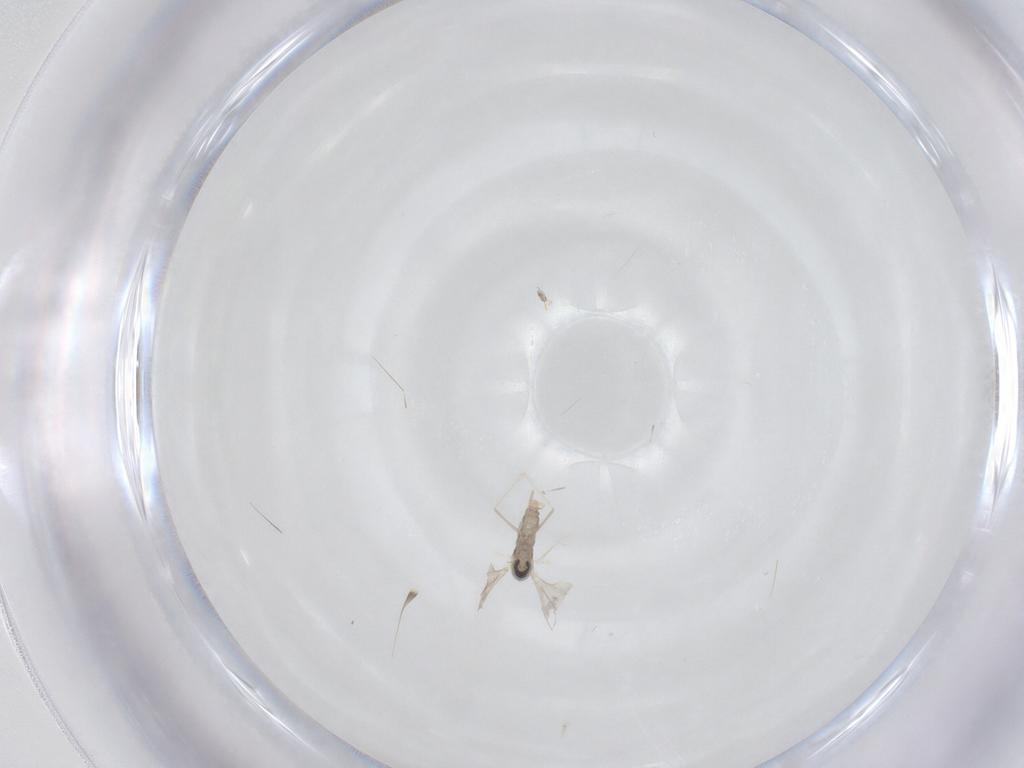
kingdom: Animalia
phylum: Arthropoda
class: Insecta
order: Diptera
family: Cecidomyiidae
